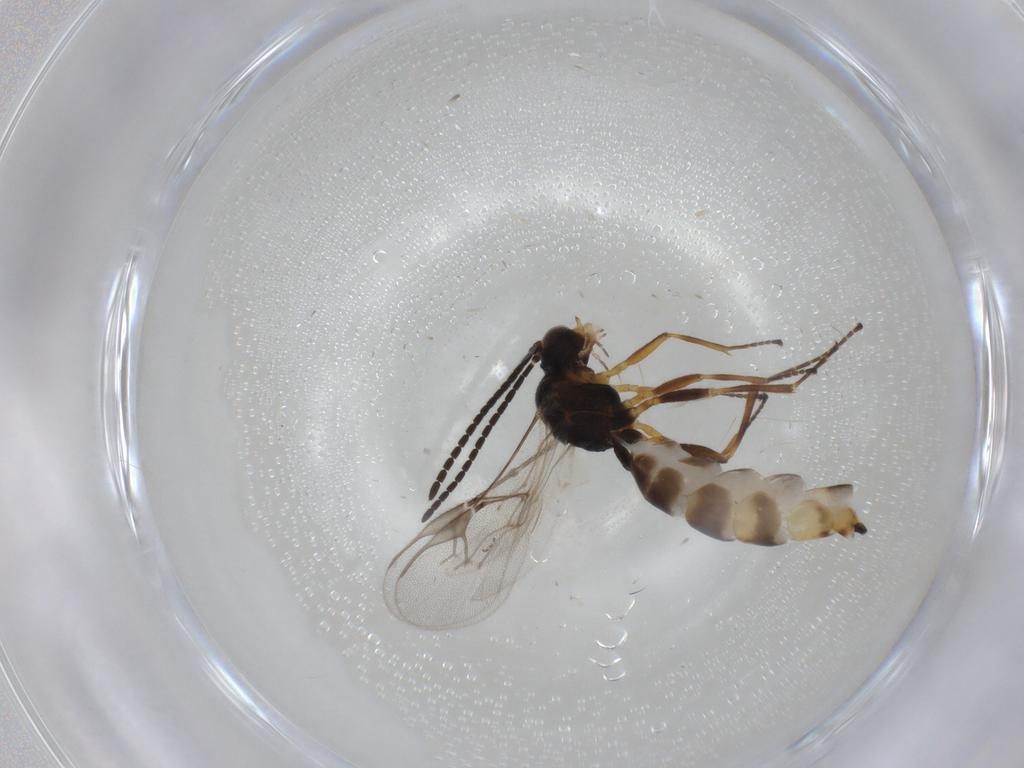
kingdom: Animalia
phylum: Arthropoda
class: Insecta
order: Hymenoptera
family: Braconidae
